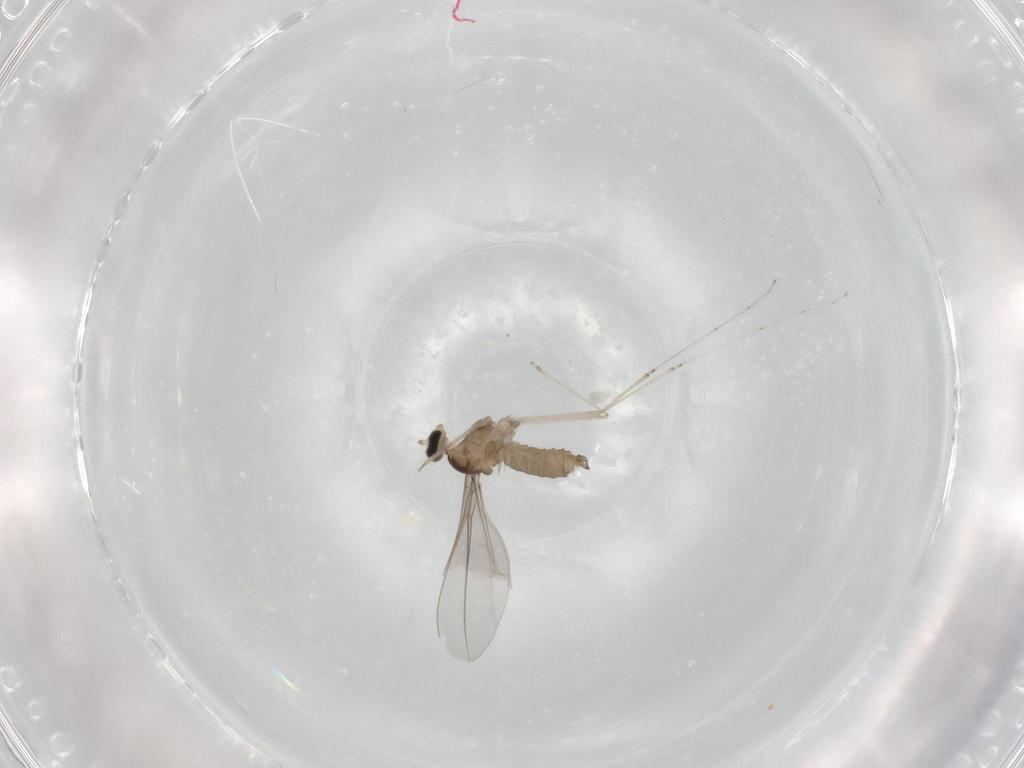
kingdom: Animalia
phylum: Arthropoda
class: Insecta
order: Diptera
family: Cecidomyiidae
